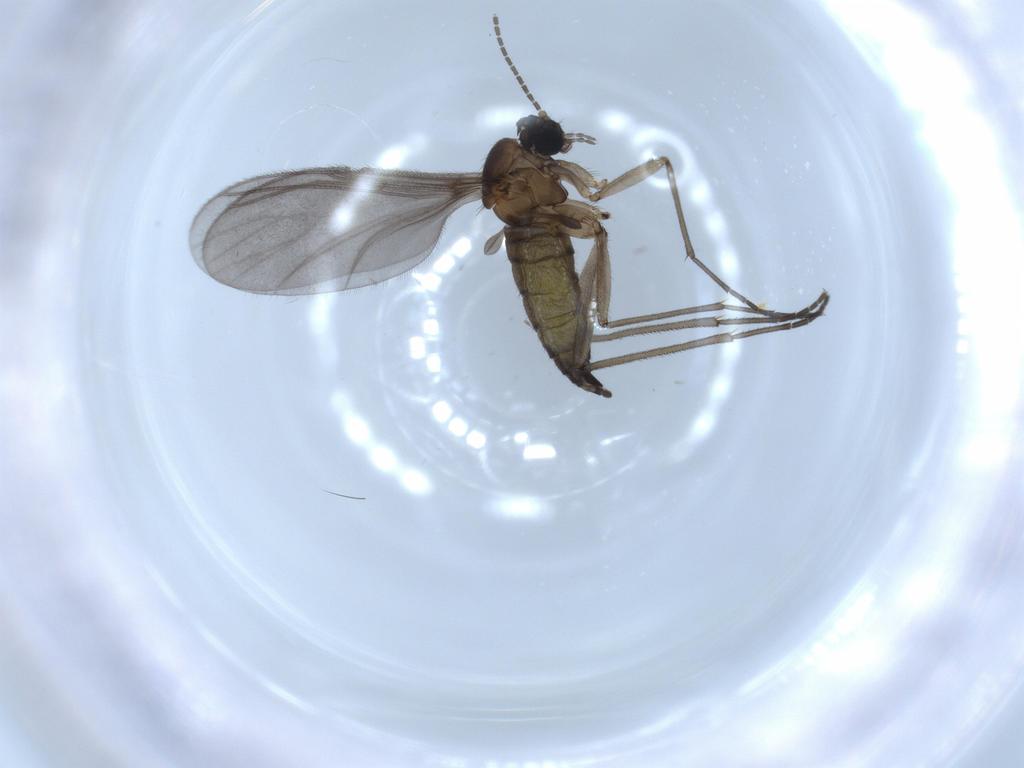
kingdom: Animalia
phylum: Arthropoda
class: Insecta
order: Diptera
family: Sciaridae
